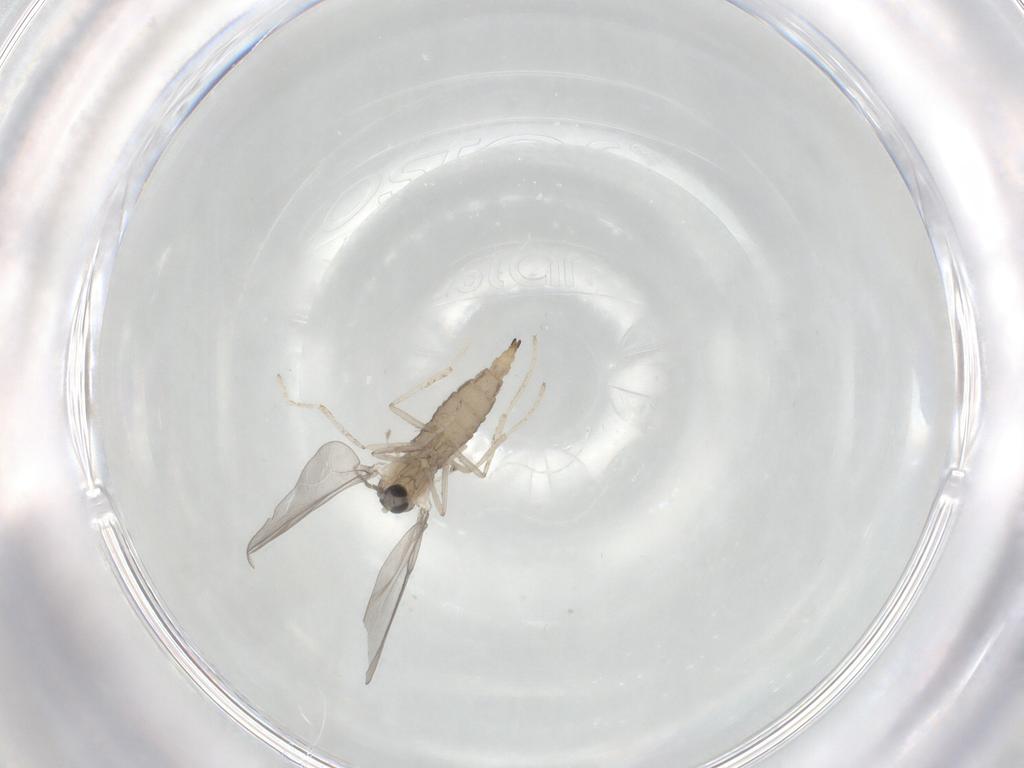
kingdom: Animalia
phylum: Arthropoda
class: Insecta
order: Diptera
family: Cecidomyiidae
